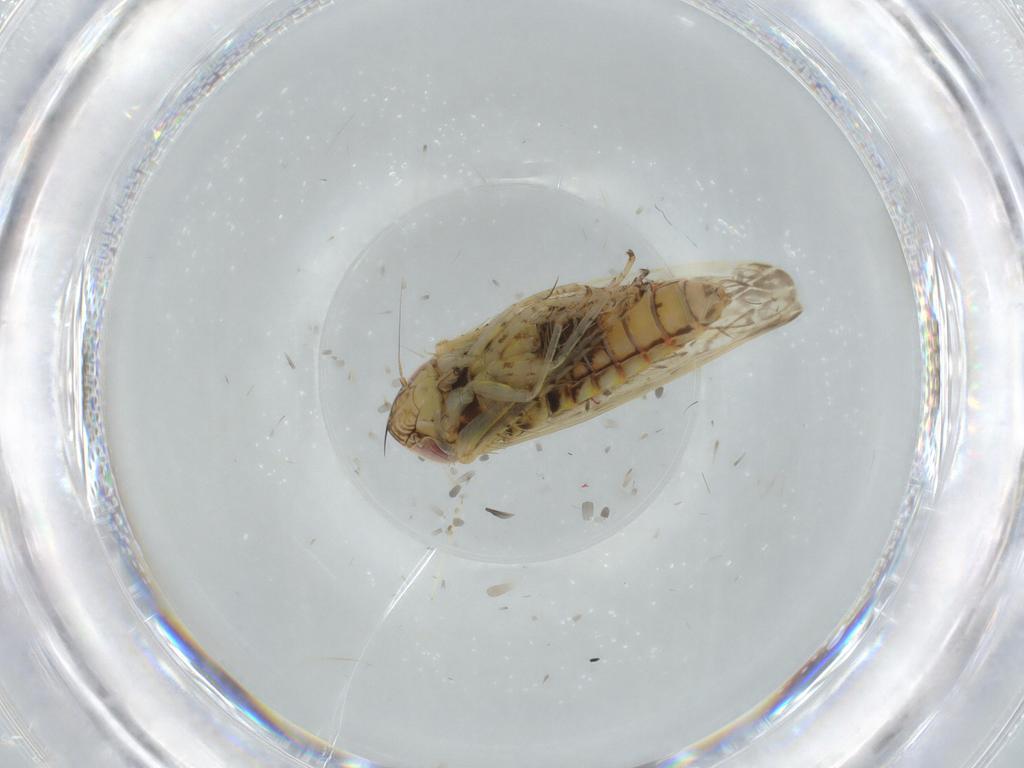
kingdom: Animalia
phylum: Arthropoda
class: Insecta
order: Hemiptera
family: Cicadellidae
